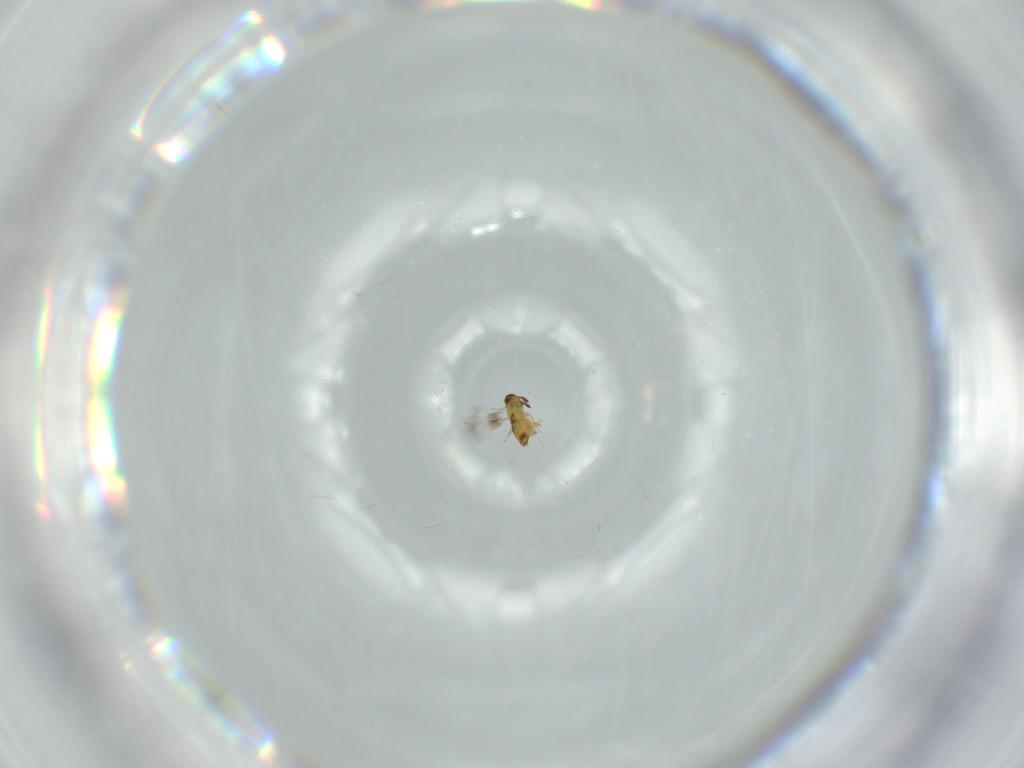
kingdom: Animalia
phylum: Arthropoda
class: Insecta
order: Hymenoptera
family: Signiphoridae
